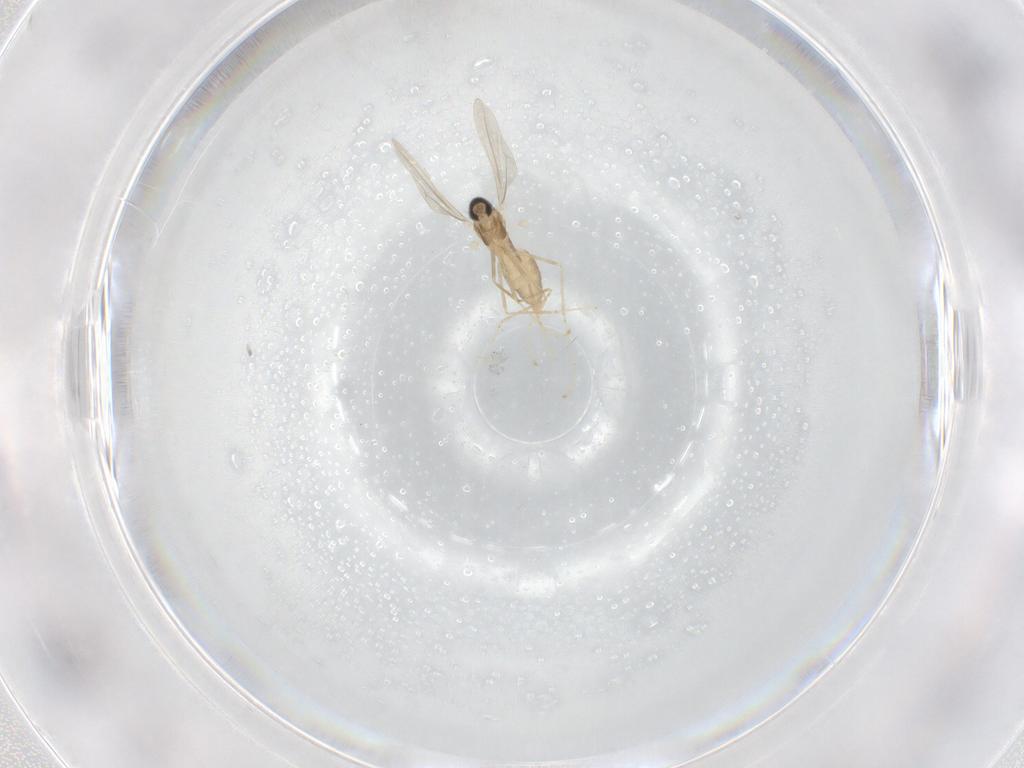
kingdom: Animalia
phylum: Arthropoda
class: Insecta
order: Diptera
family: Cecidomyiidae
